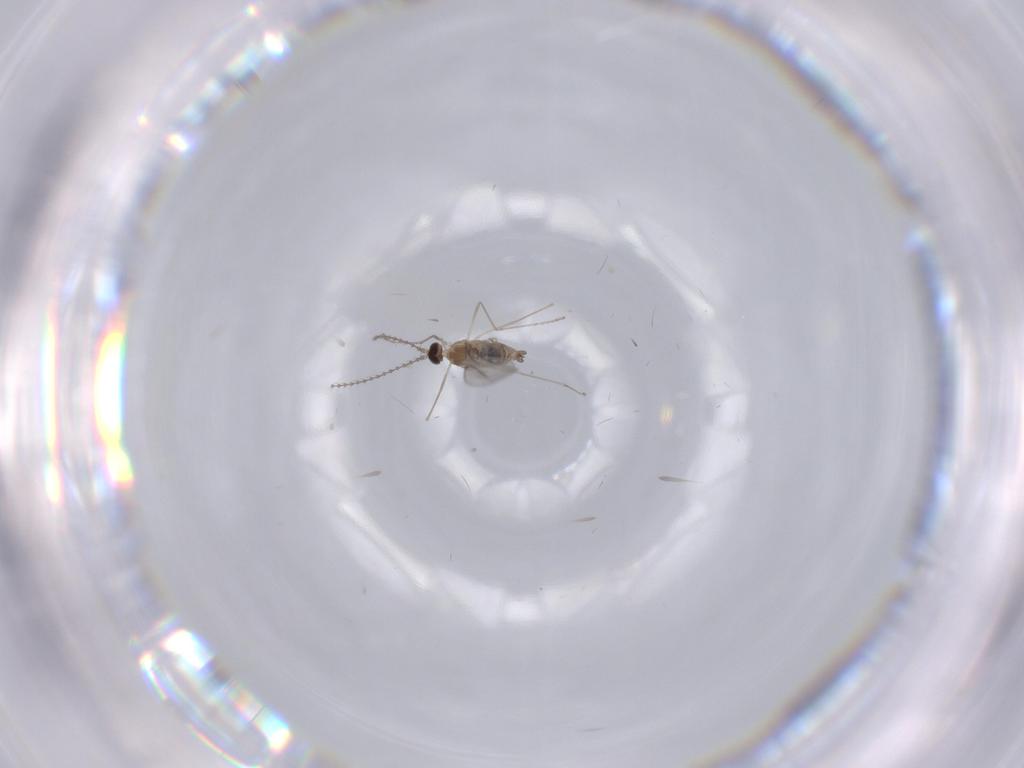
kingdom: Animalia
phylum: Arthropoda
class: Insecta
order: Diptera
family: Cecidomyiidae
